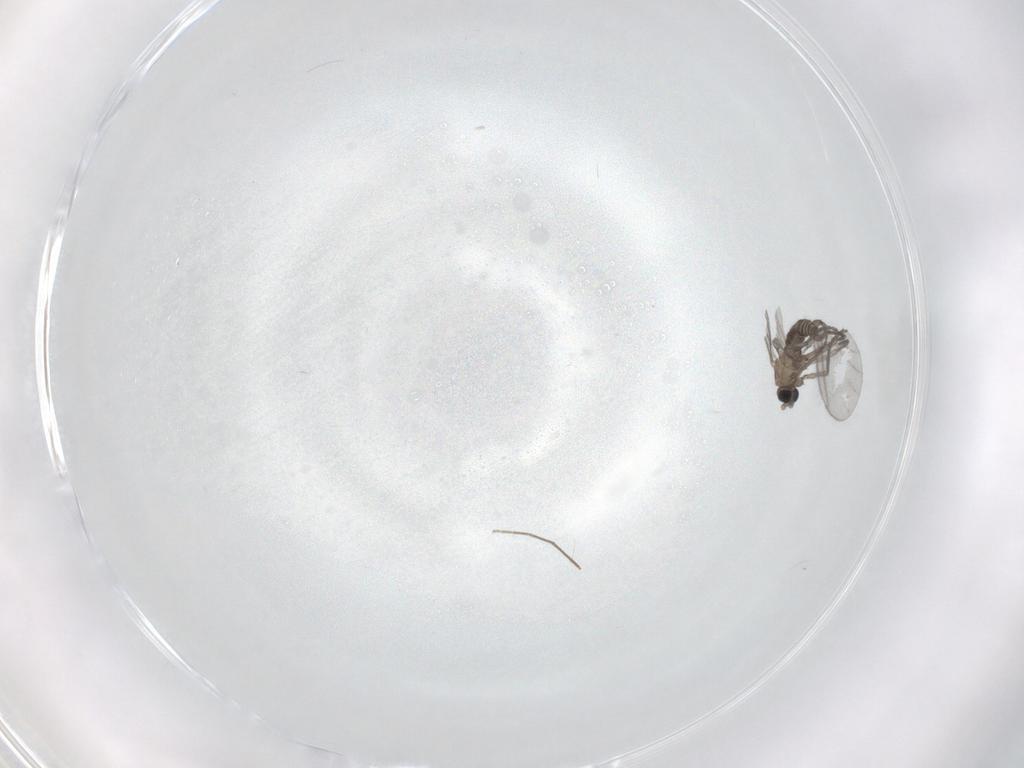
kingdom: Animalia
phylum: Arthropoda
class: Insecta
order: Diptera
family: Sciaridae
